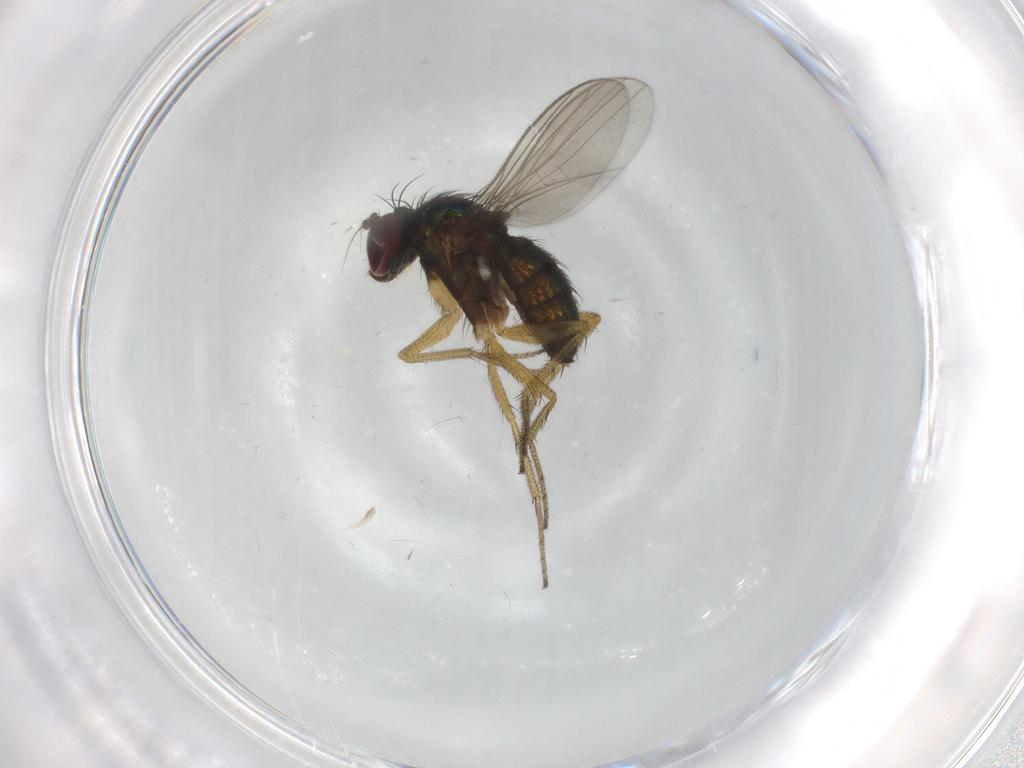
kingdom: Animalia
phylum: Arthropoda
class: Insecta
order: Diptera
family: Dolichopodidae
